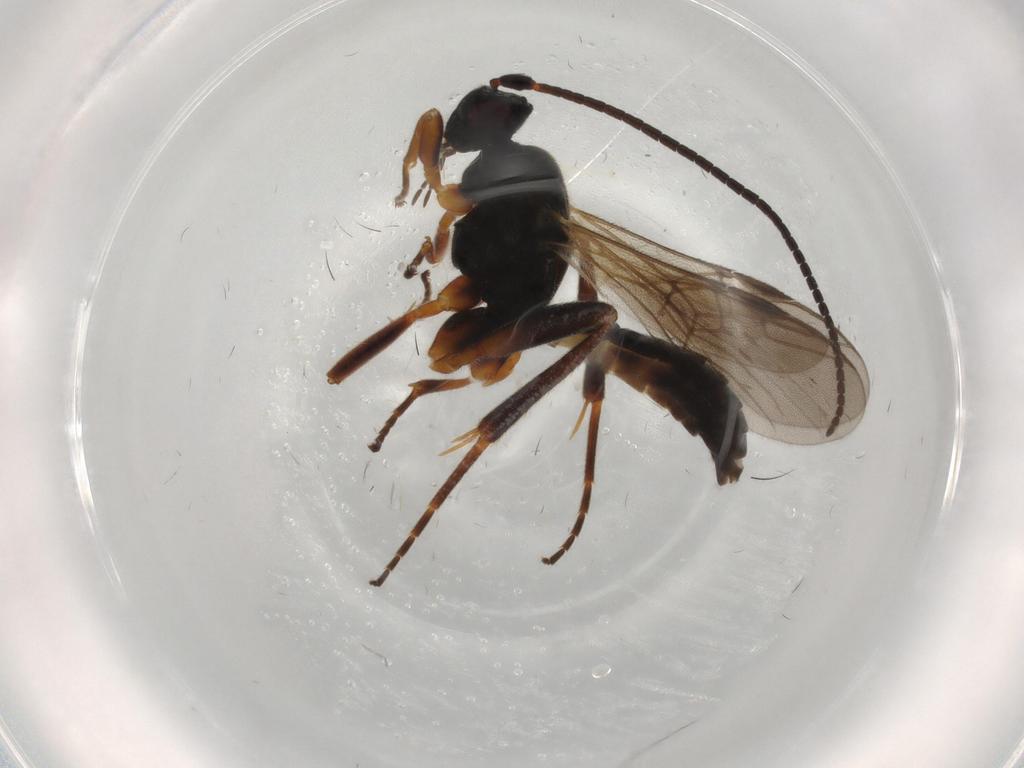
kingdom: Animalia
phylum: Arthropoda
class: Insecta
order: Hymenoptera
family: Braconidae
